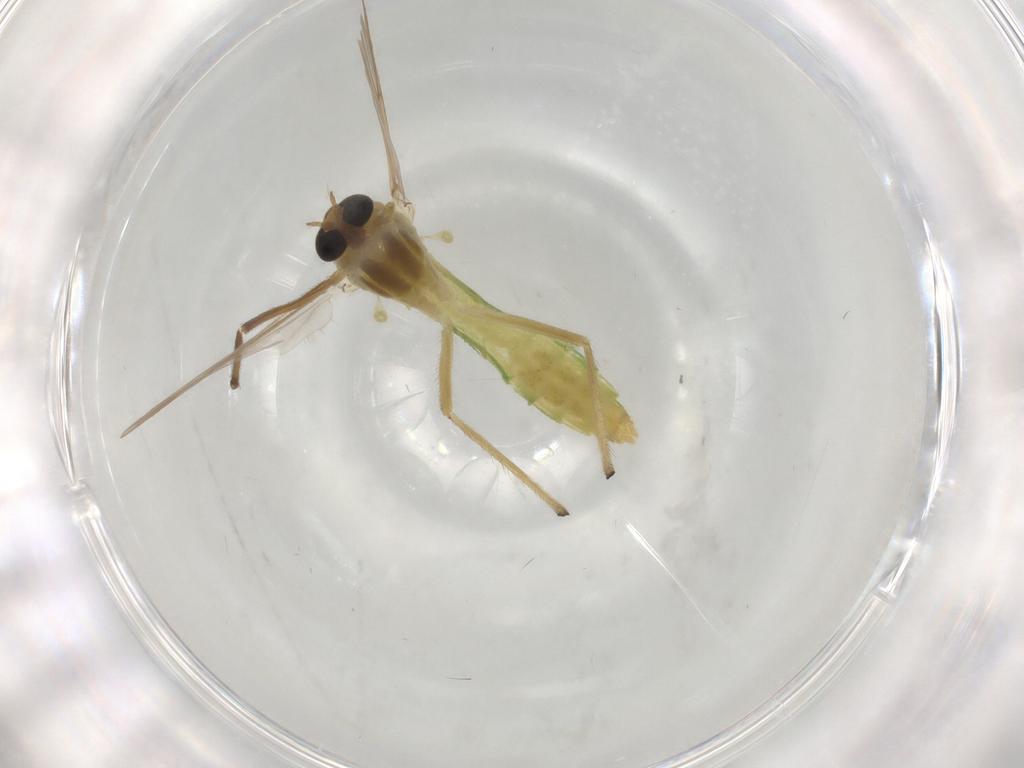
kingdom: Animalia
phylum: Arthropoda
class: Insecta
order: Diptera
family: Chironomidae
